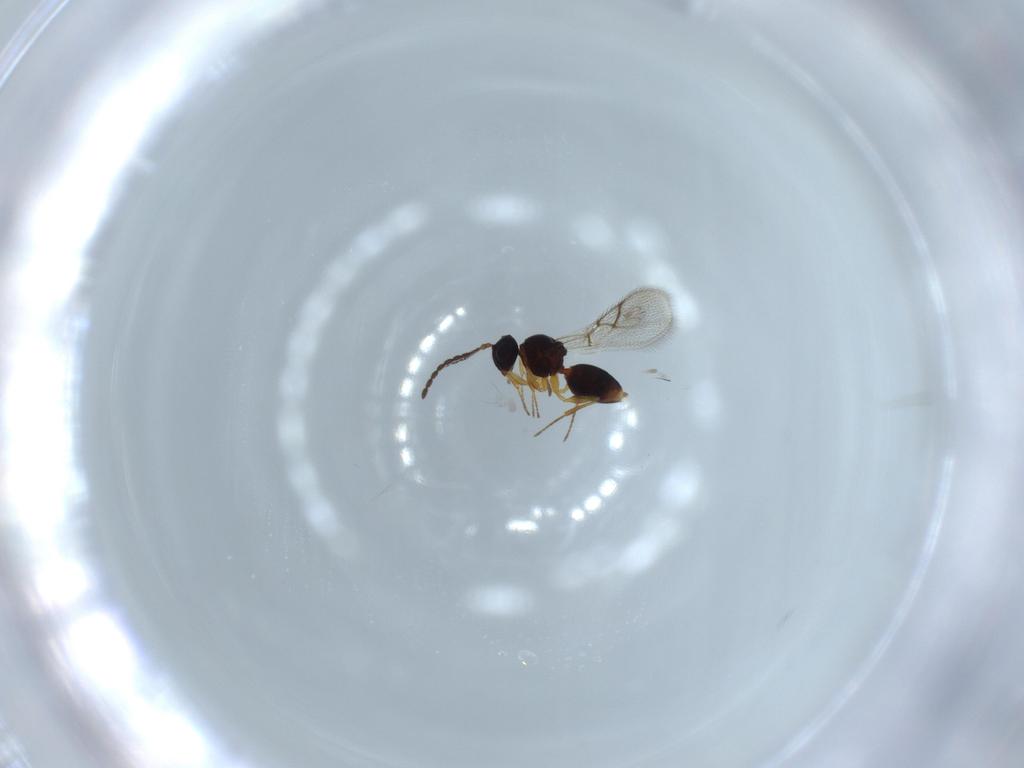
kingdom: Animalia
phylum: Arthropoda
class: Insecta
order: Hymenoptera
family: Figitidae
